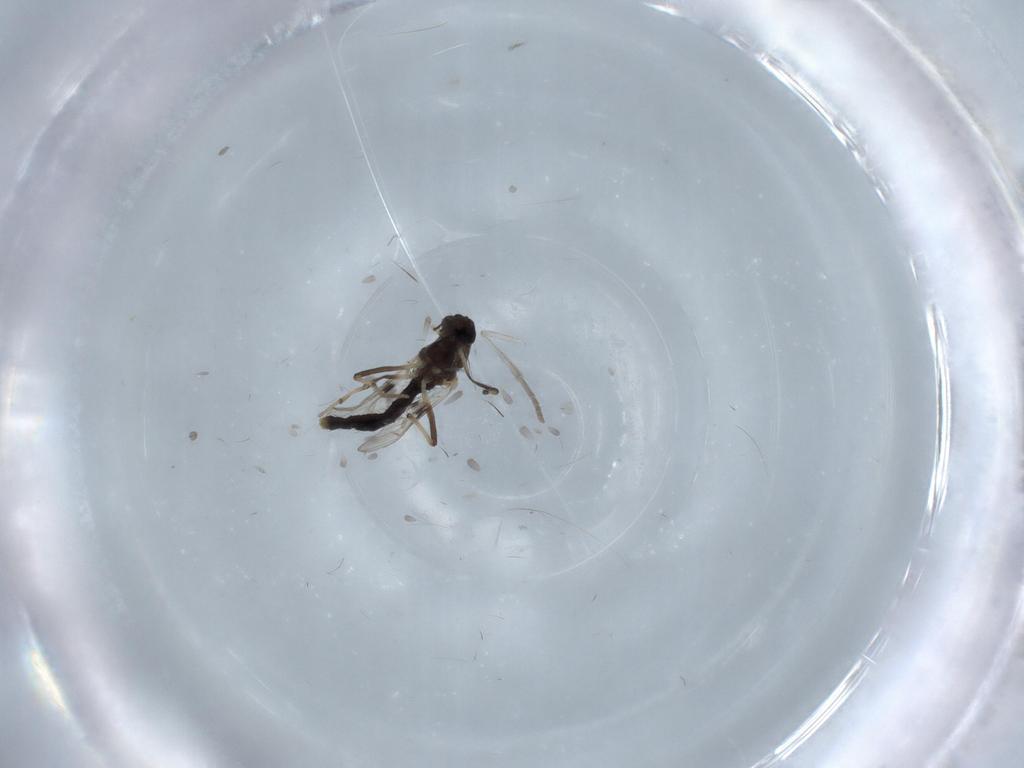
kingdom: Animalia
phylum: Arthropoda
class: Insecta
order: Diptera
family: Chironomidae
